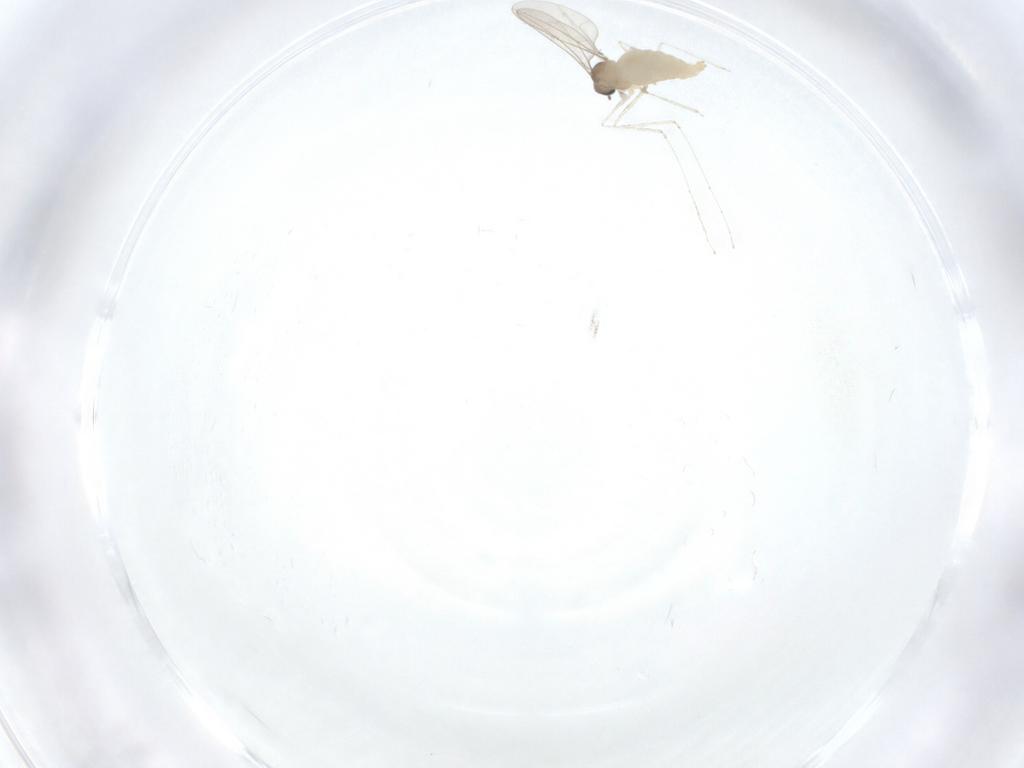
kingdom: Animalia
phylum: Arthropoda
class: Insecta
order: Diptera
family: Cecidomyiidae
